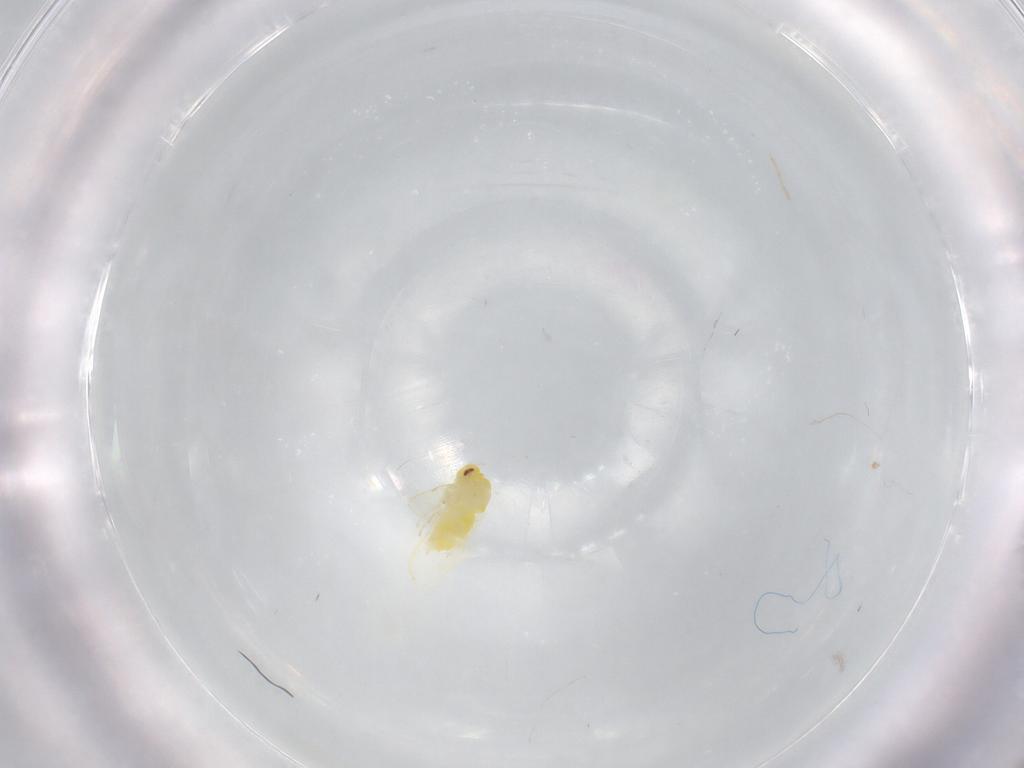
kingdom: Animalia
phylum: Arthropoda
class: Insecta
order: Hemiptera
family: Aleyrodidae
